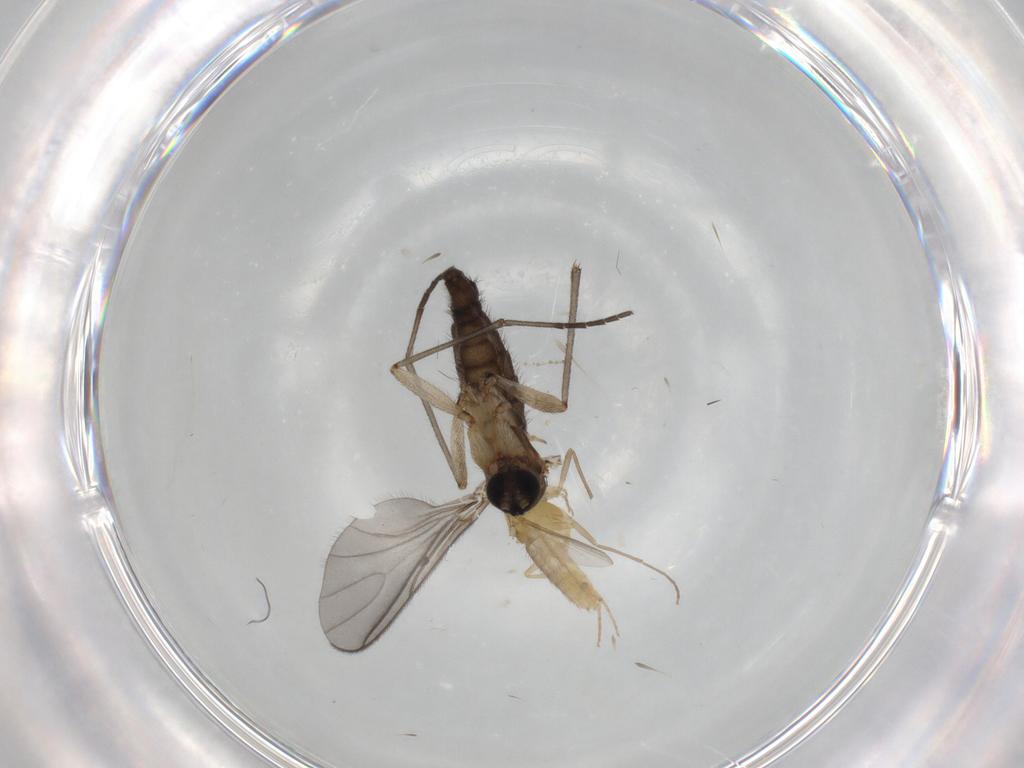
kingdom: Animalia
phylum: Arthropoda
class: Insecta
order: Diptera
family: Sciaridae
